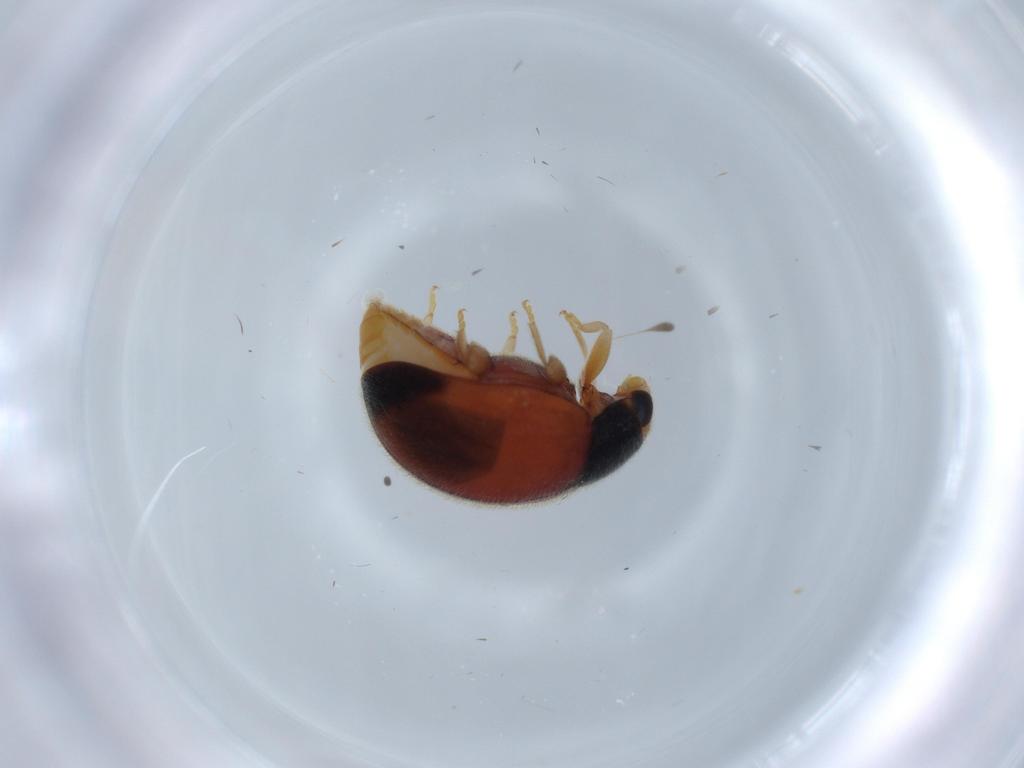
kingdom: Animalia
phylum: Arthropoda
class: Insecta
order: Coleoptera
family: Coccinellidae
